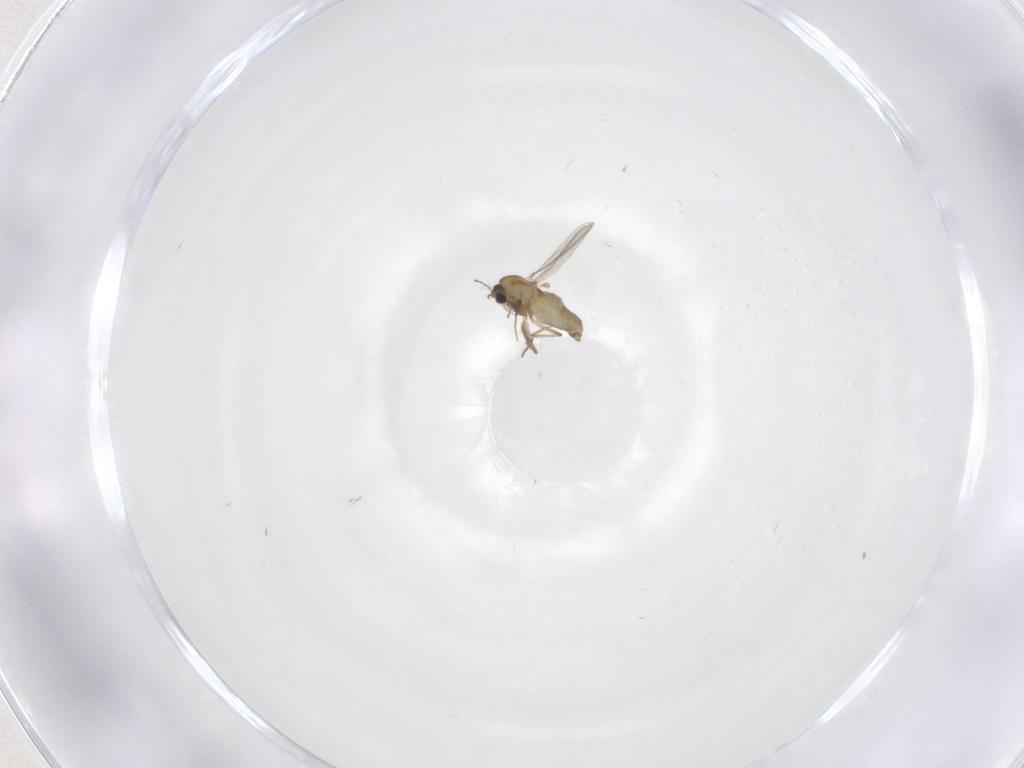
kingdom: Animalia
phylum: Arthropoda
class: Insecta
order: Diptera
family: Chironomidae
